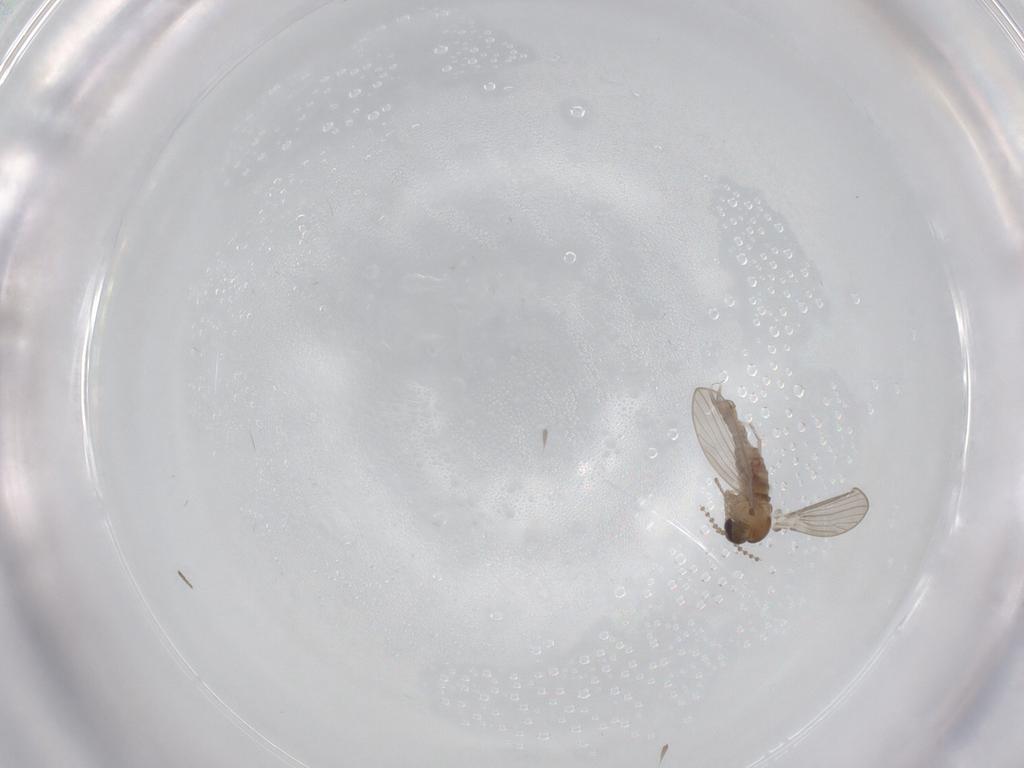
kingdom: Animalia
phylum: Arthropoda
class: Insecta
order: Diptera
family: Psychodidae
